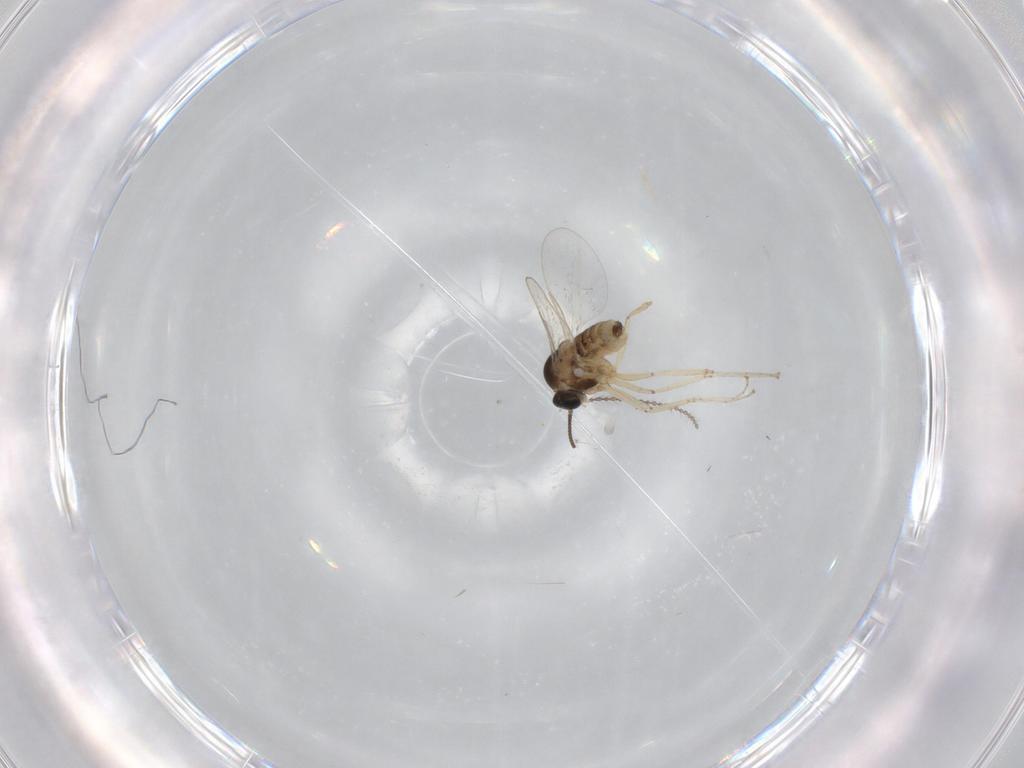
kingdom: Animalia
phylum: Arthropoda
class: Insecta
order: Diptera
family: Cecidomyiidae
